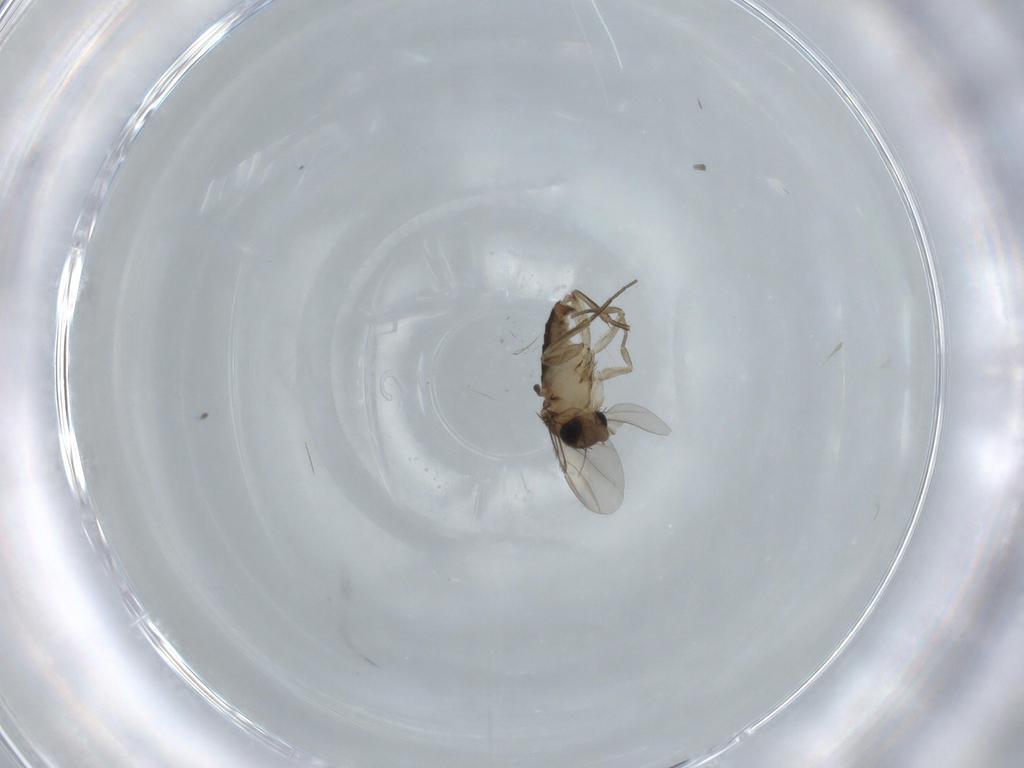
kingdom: Animalia
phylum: Arthropoda
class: Insecta
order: Diptera
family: Phoridae
